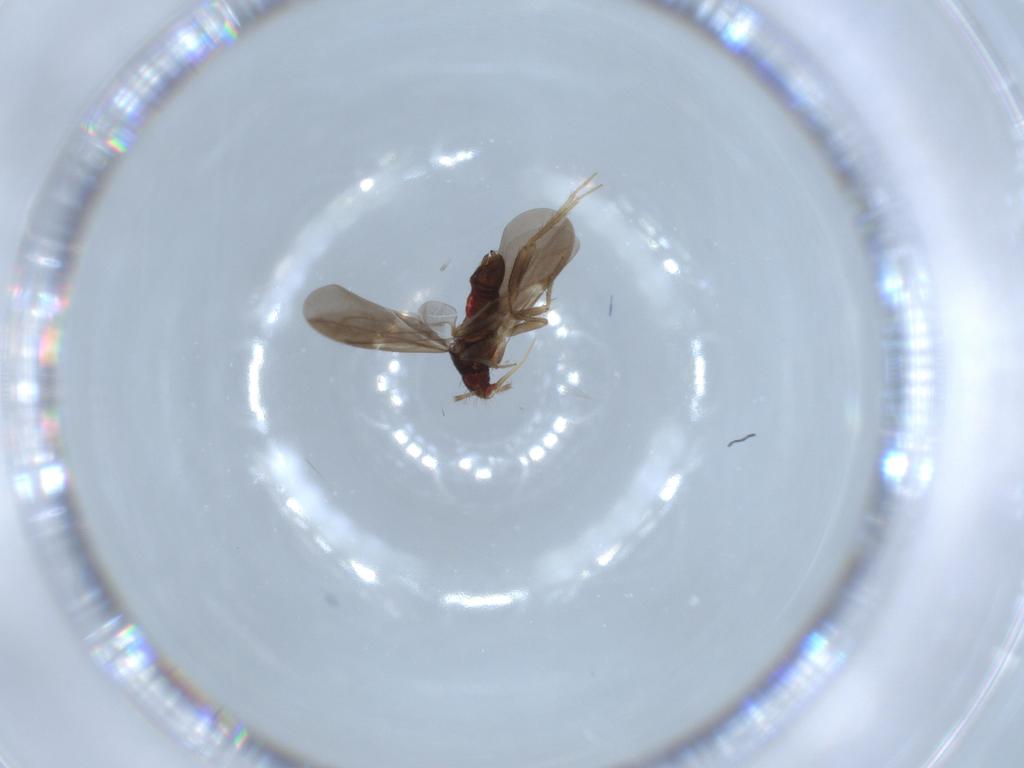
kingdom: Animalia
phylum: Arthropoda
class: Insecta
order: Hemiptera
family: Ceratocombidae
